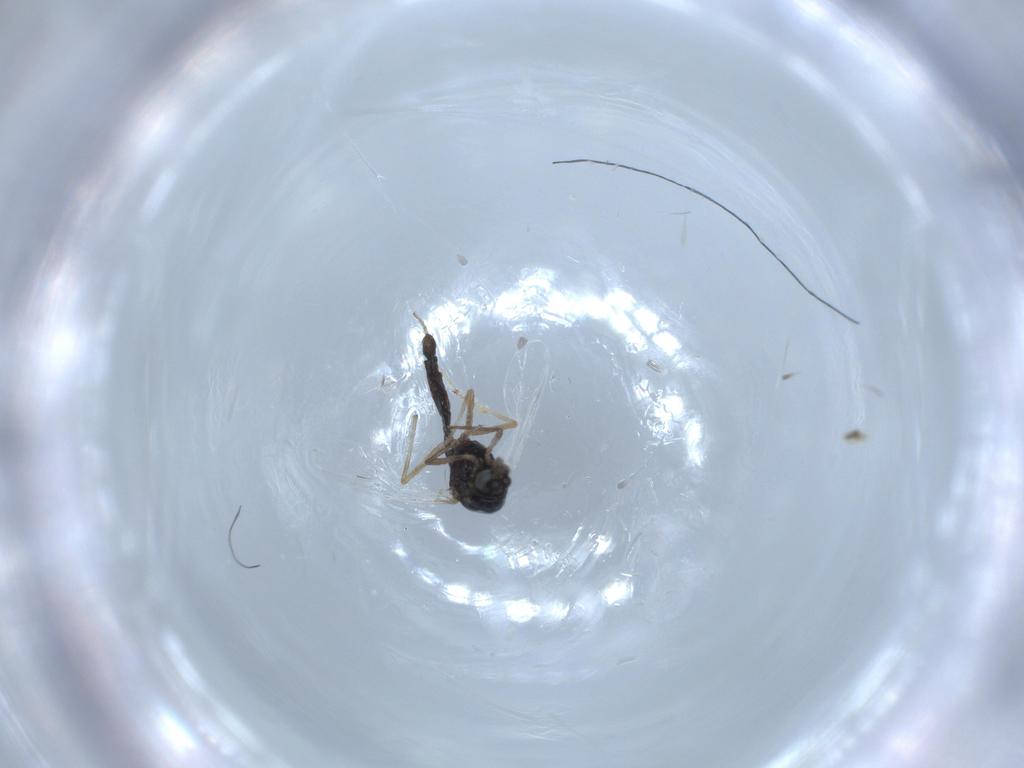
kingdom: Animalia
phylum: Arthropoda
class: Insecta
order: Diptera
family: Chironomidae
